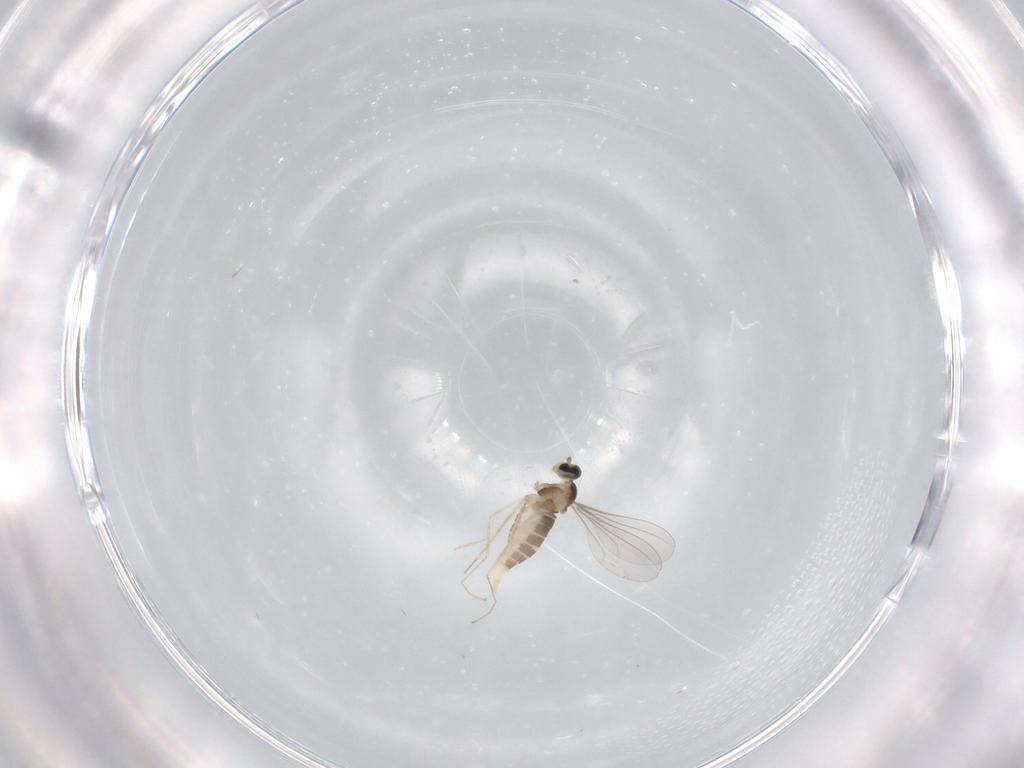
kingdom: Animalia
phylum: Arthropoda
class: Insecta
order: Diptera
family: Cecidomyiidae
